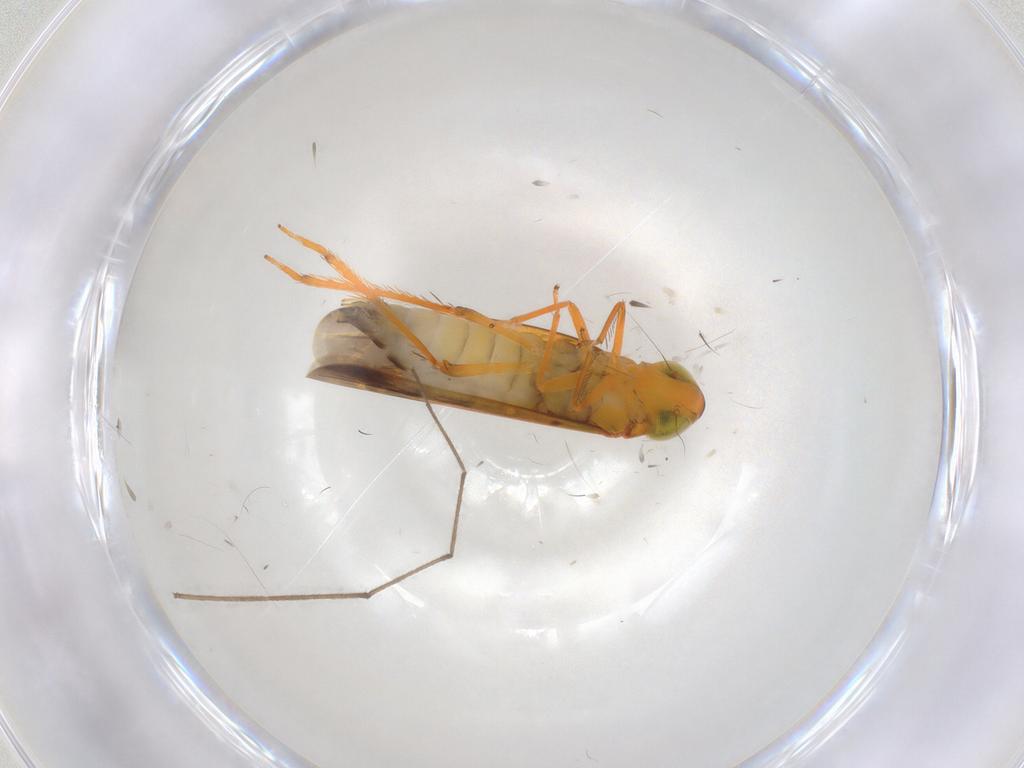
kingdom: Animalia
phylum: Arthropoda
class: Insecta
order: Hemiptera
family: Cicadellidae
